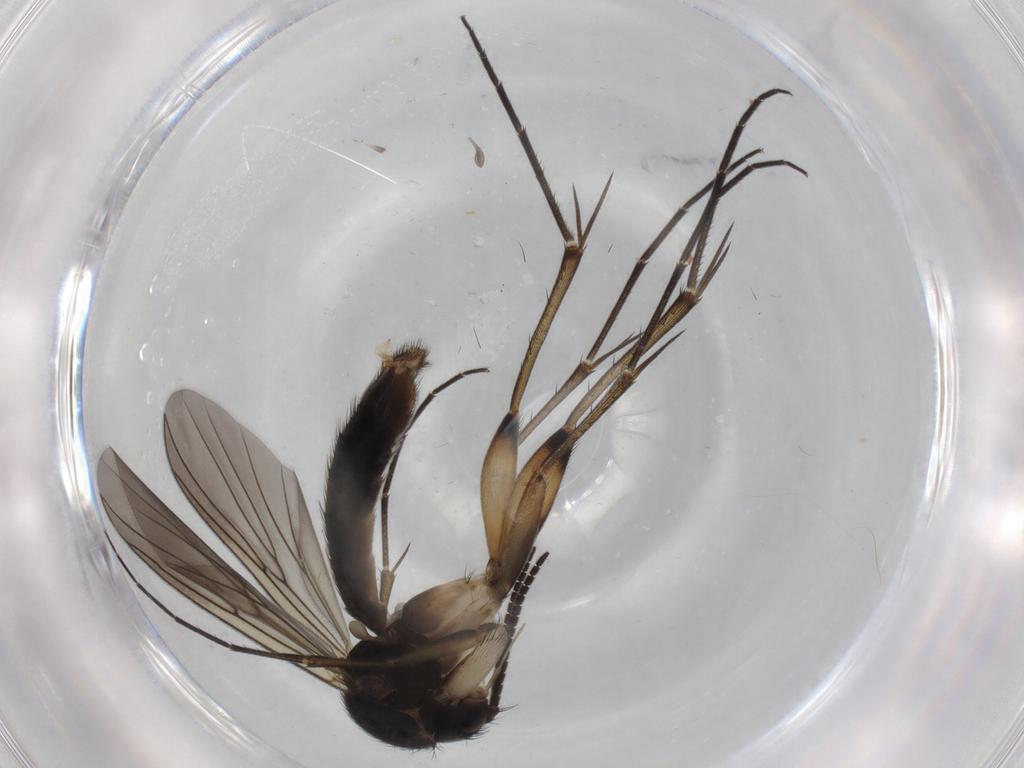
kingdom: Animalia
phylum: Arthropoda
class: Insecta
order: Diptera
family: Mycetophilidae
